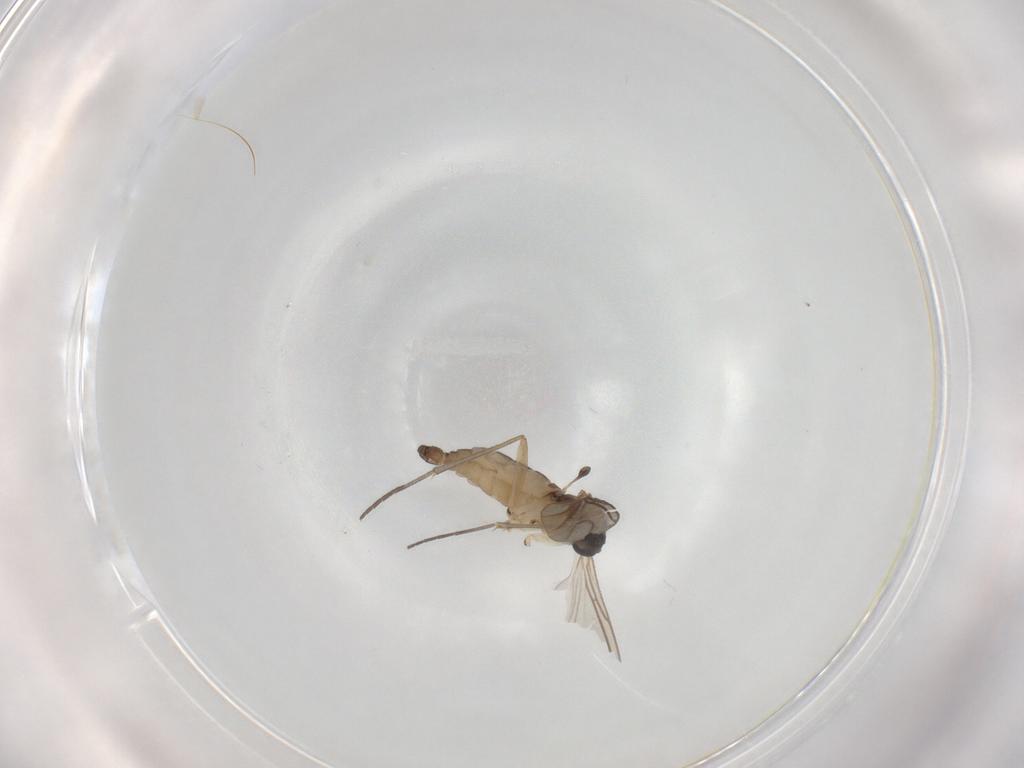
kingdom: Animalia
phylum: Arthropoda
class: Insecta
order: Diptera
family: Sciaridae
